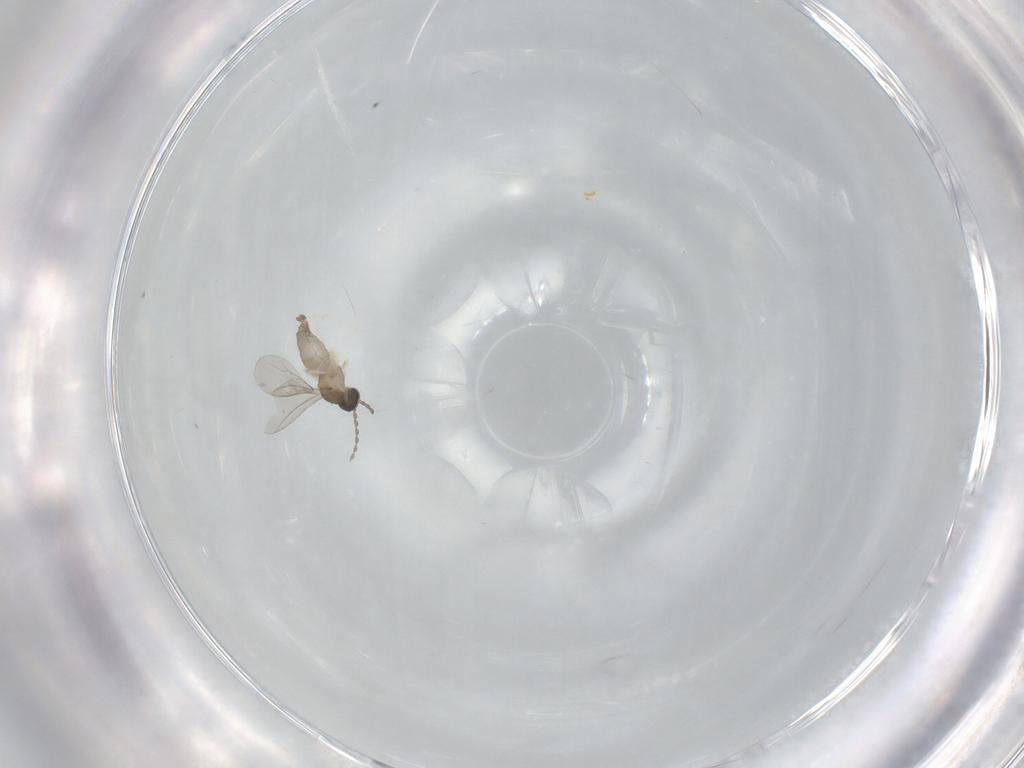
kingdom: Animalia
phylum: Arthropoda
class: Insecta
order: Diptera
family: Cecidomyiidae
